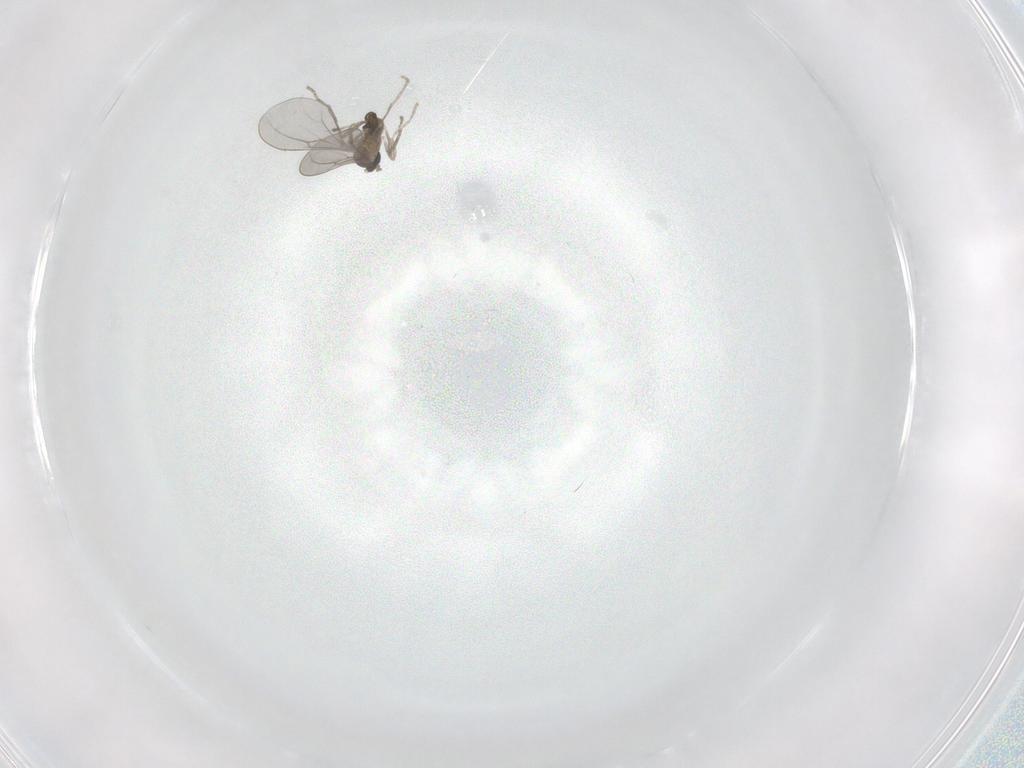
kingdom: Animalia
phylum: Arthropoda
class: Insecta
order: Diptera
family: Cecidomyiidae
